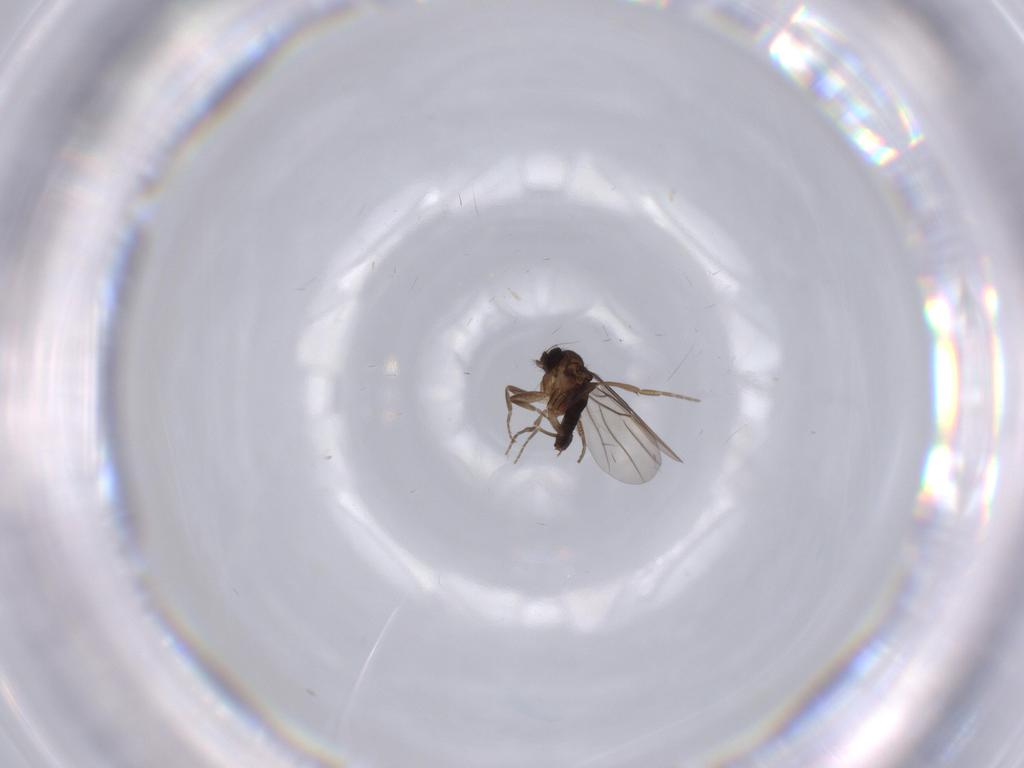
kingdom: Animalia
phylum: Arthropoda
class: Insecta
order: Diptera
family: Phoridae
